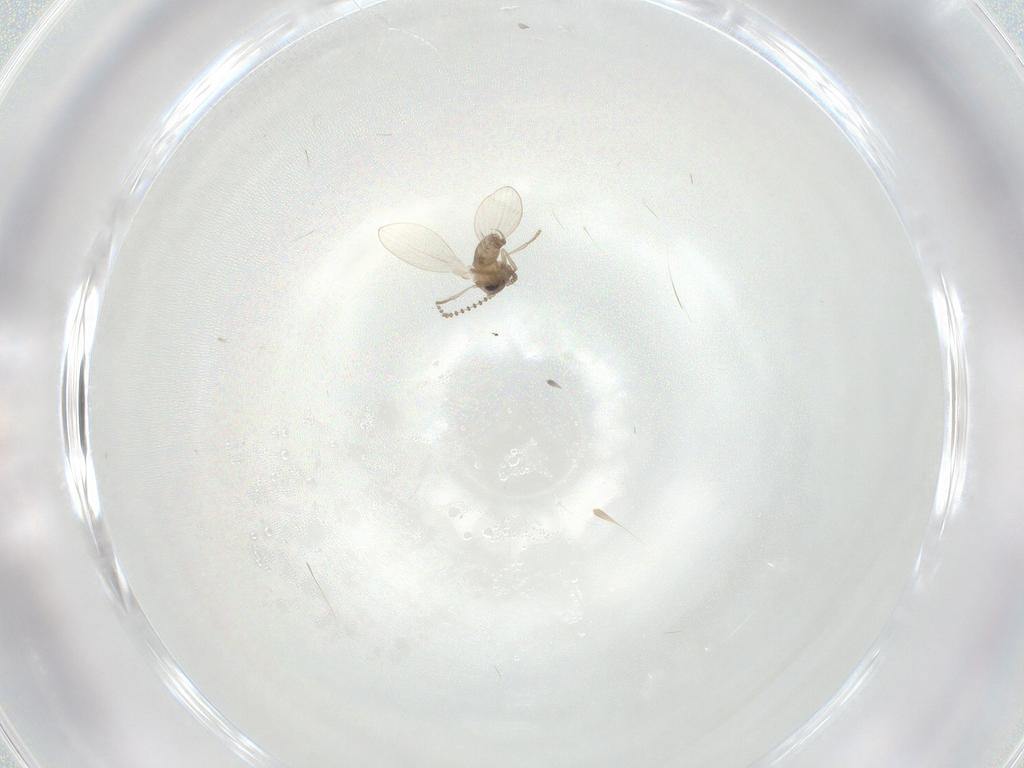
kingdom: Animalia
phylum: Arthropoda
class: Insecta
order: Diptera
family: Psychodidae
